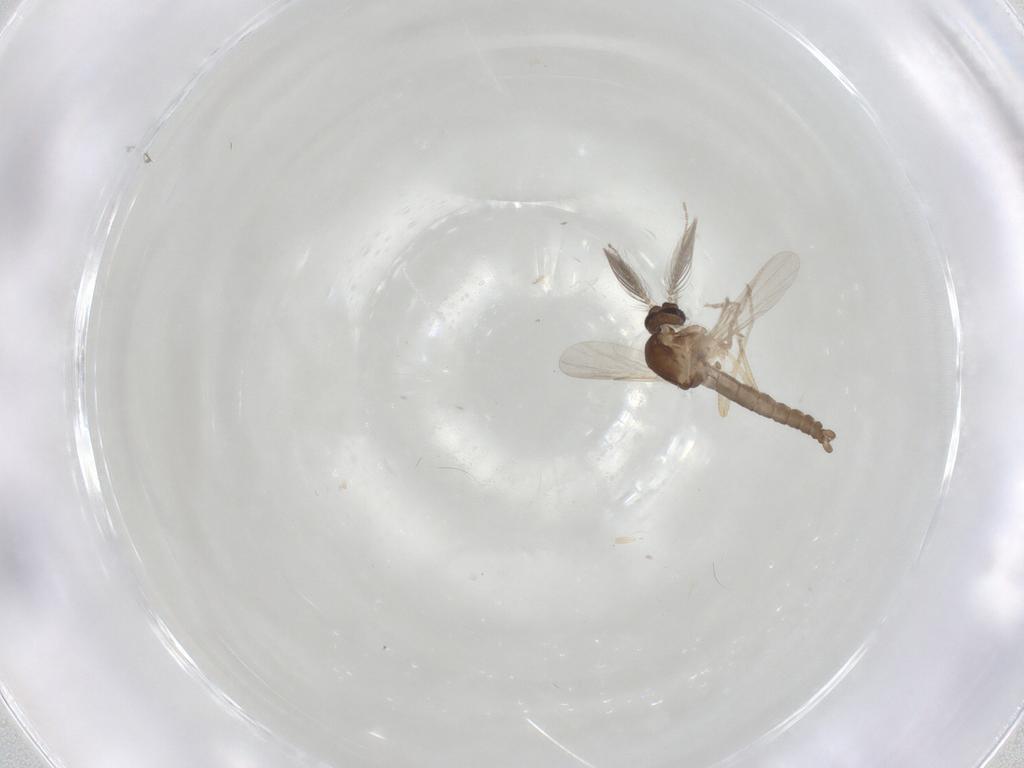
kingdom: Animalia
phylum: Arthropoda
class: Insecta
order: Diptera
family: Ceratopogonidae
